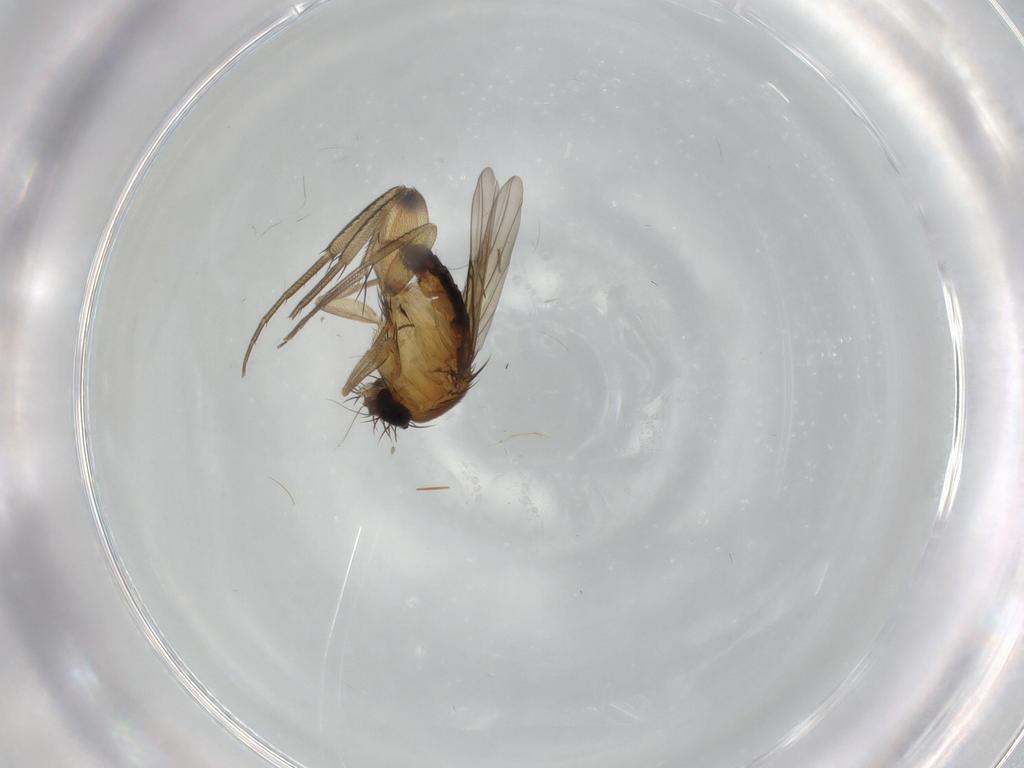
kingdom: Animalia
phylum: Arthropoda
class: Insecta
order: Diptera
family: Phoridae
